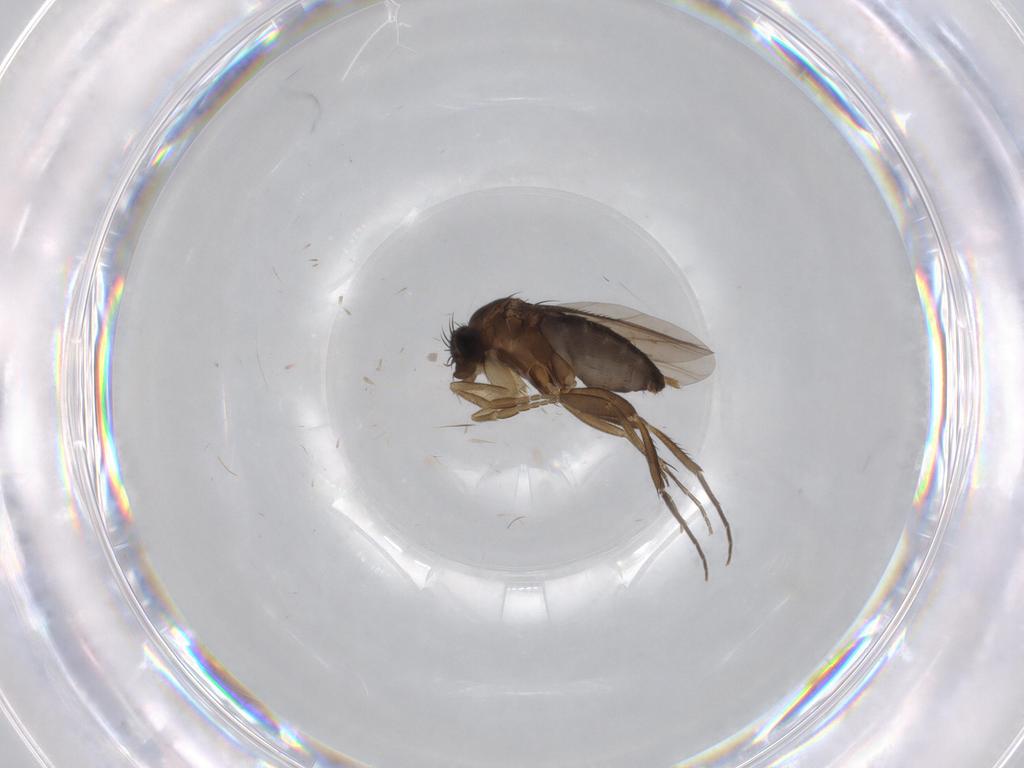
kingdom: Animalia
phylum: Arthropoda
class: Insecta
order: Diptera
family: Phoridae
